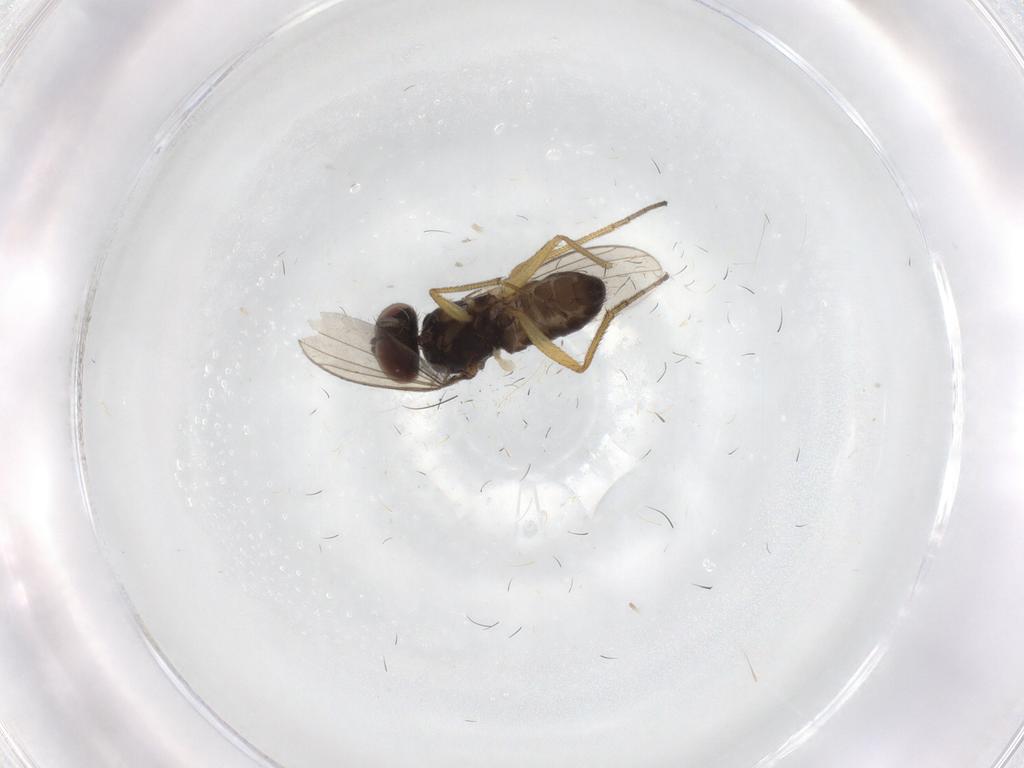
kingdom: Animalia
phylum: Arthropoda
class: Insecta
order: Diptera
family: Dolichopodidae
